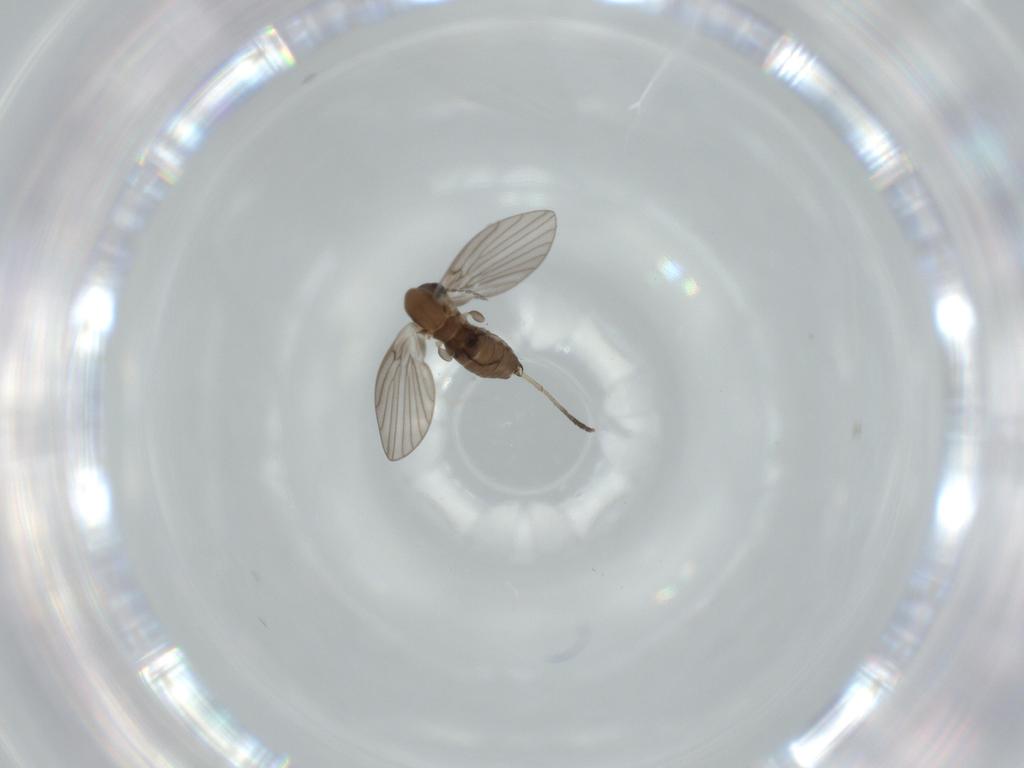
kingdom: Animalia
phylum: Arthropoda
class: Insecta
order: Diptera
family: Psychodidae
